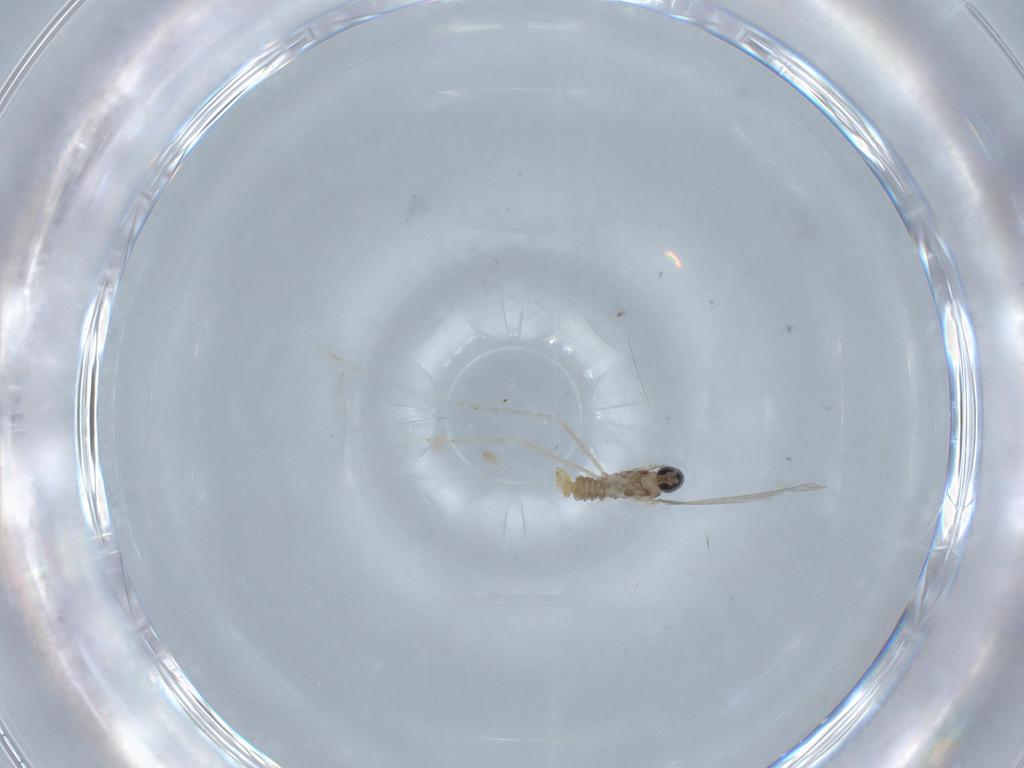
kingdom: Animalia
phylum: Arthropoda
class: Insecta
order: Diptera
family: Cecidomyiidae
